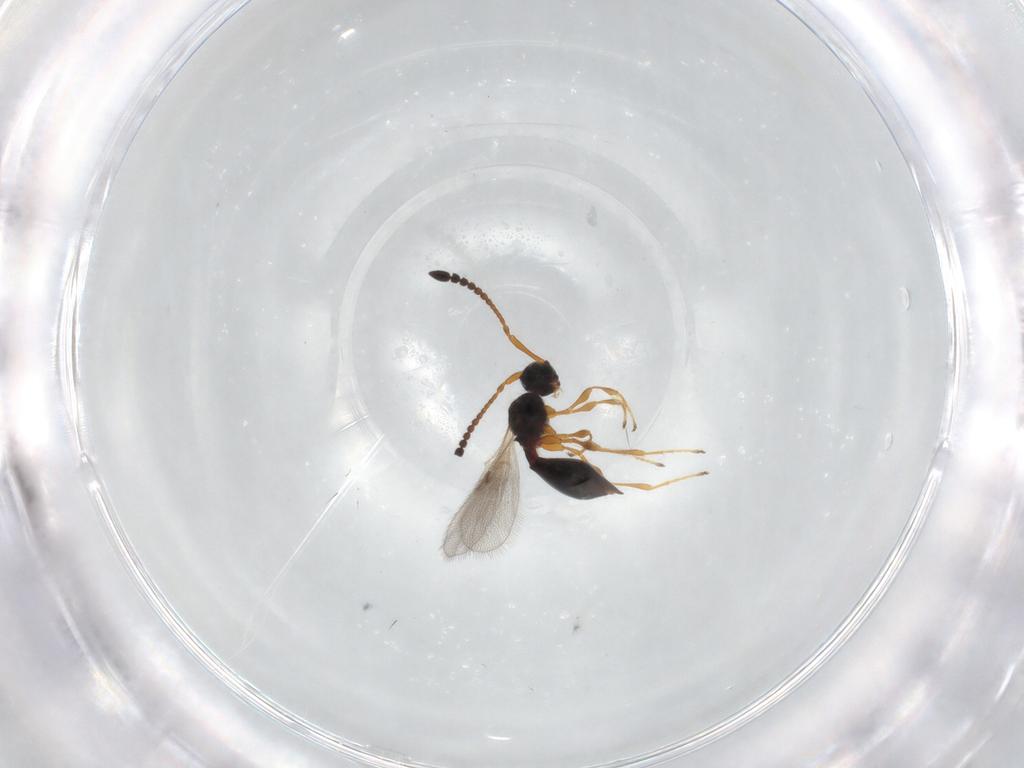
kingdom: Animalia
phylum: Arthropoda
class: Insecta
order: Hymenoptera
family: Diapriidae
